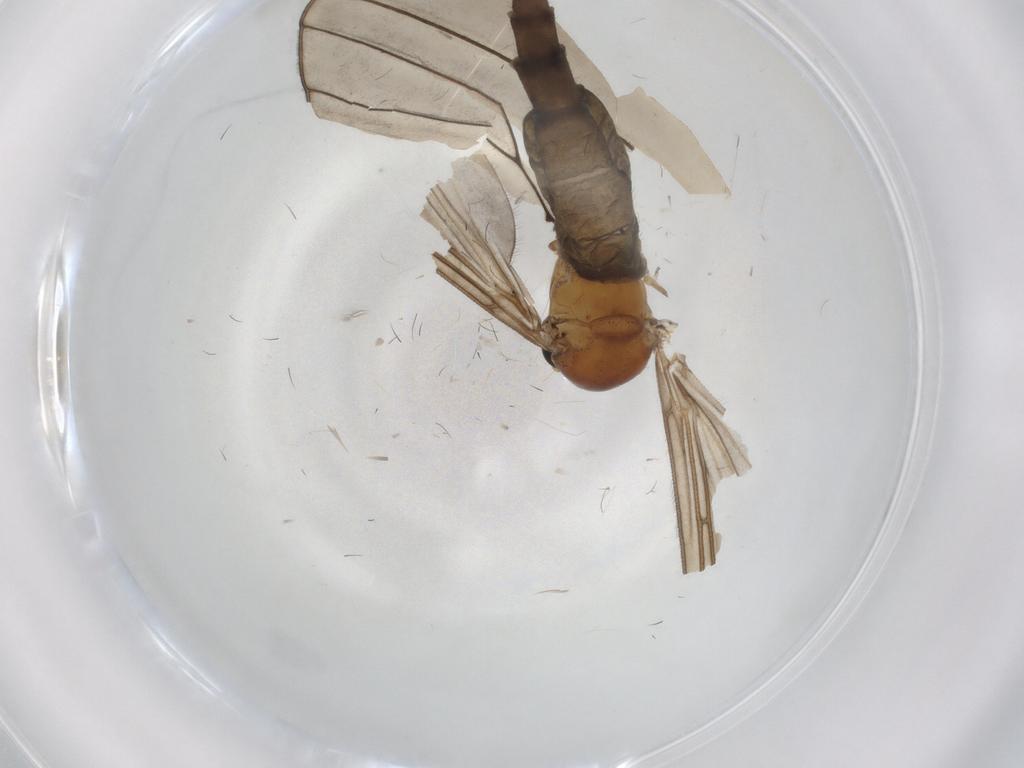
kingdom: Animalia
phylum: Arthropoda
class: Insecta
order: Diptera
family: Sciaridae
